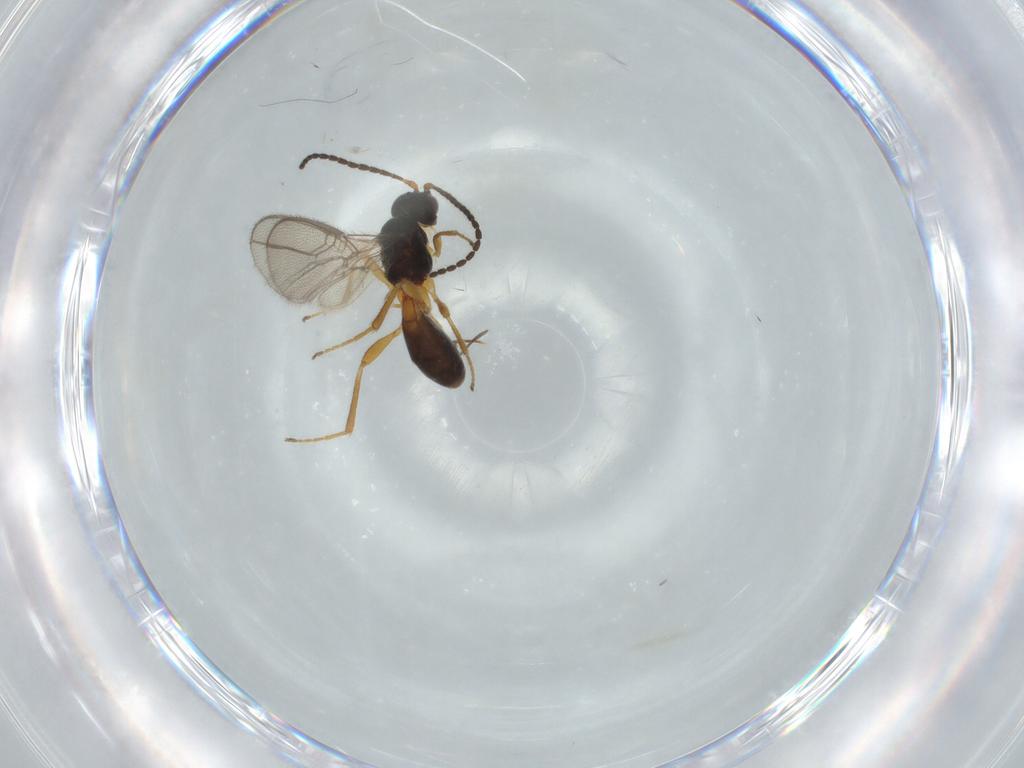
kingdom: Animalia
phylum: Arthropoda
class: Insecta
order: Hymenoptera
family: Braconidae
